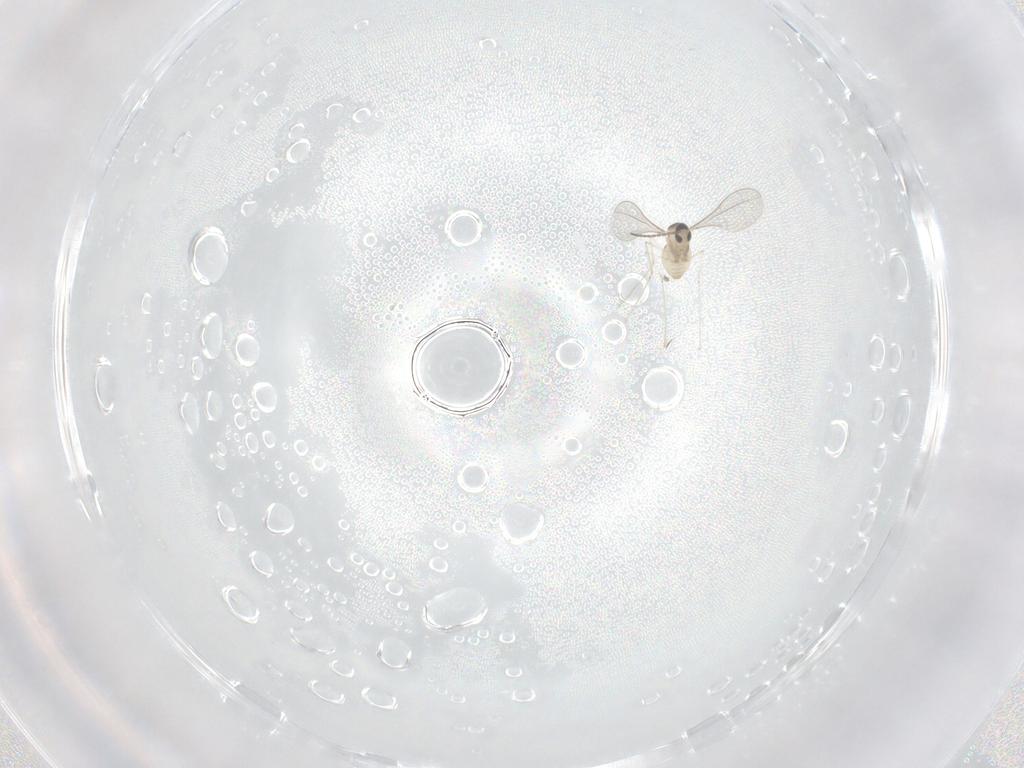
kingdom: Animalia
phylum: Arthropoda
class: Insecta
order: Diptera
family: Cecidomyiidae
